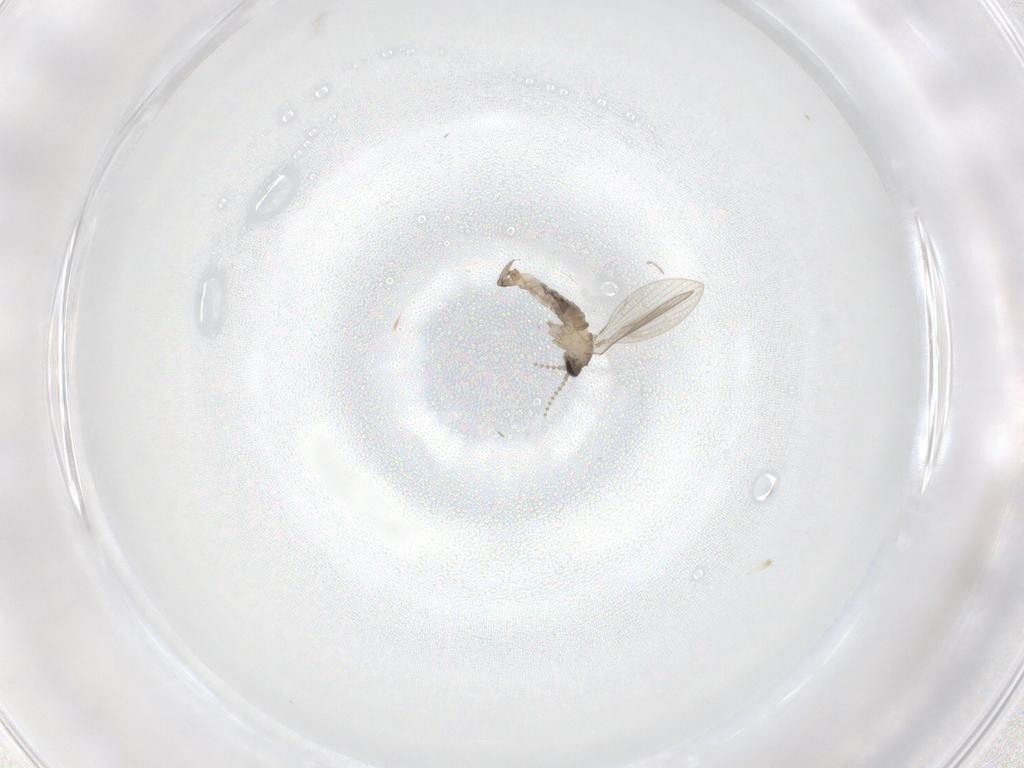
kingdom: Animalia
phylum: Arthropoda
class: Insecta
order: Diptera
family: Psychodidae
